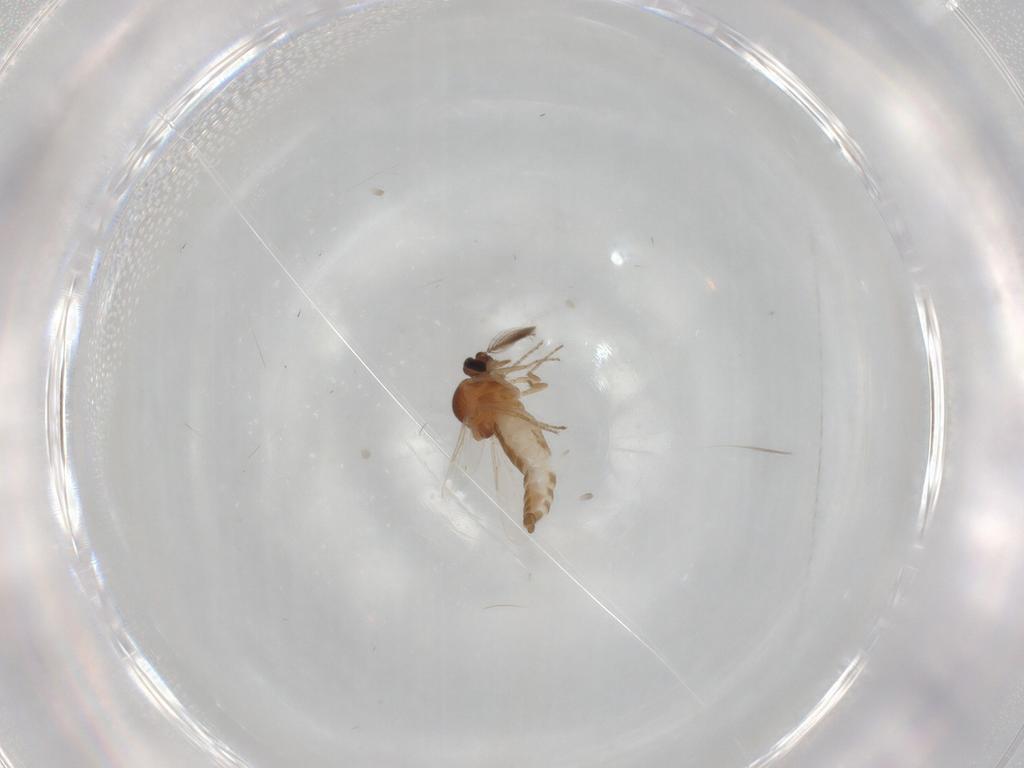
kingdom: Animalia
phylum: Arthropoda
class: Insecta
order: Diptera
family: Ceratopogonidae
